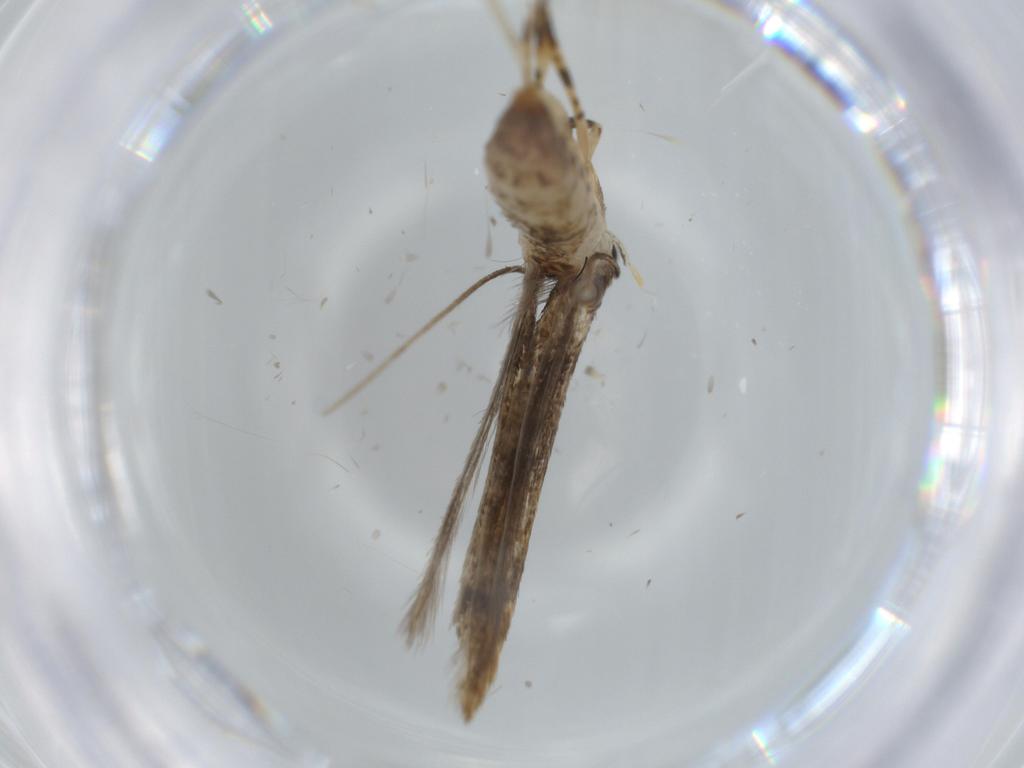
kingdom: Animalia
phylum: Arthropoda
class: Insecta
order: Lepidoptera
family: Tineidae
